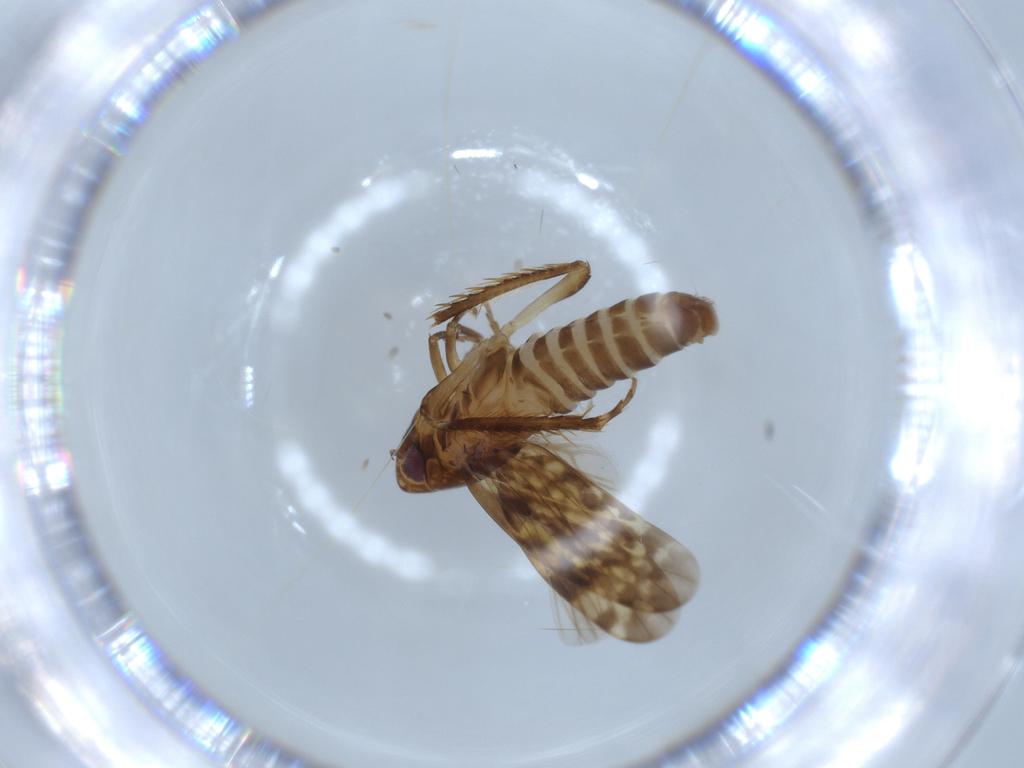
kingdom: Animalia
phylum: Arthropoda
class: Insecta
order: Hemiptera
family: Cicadellidae
